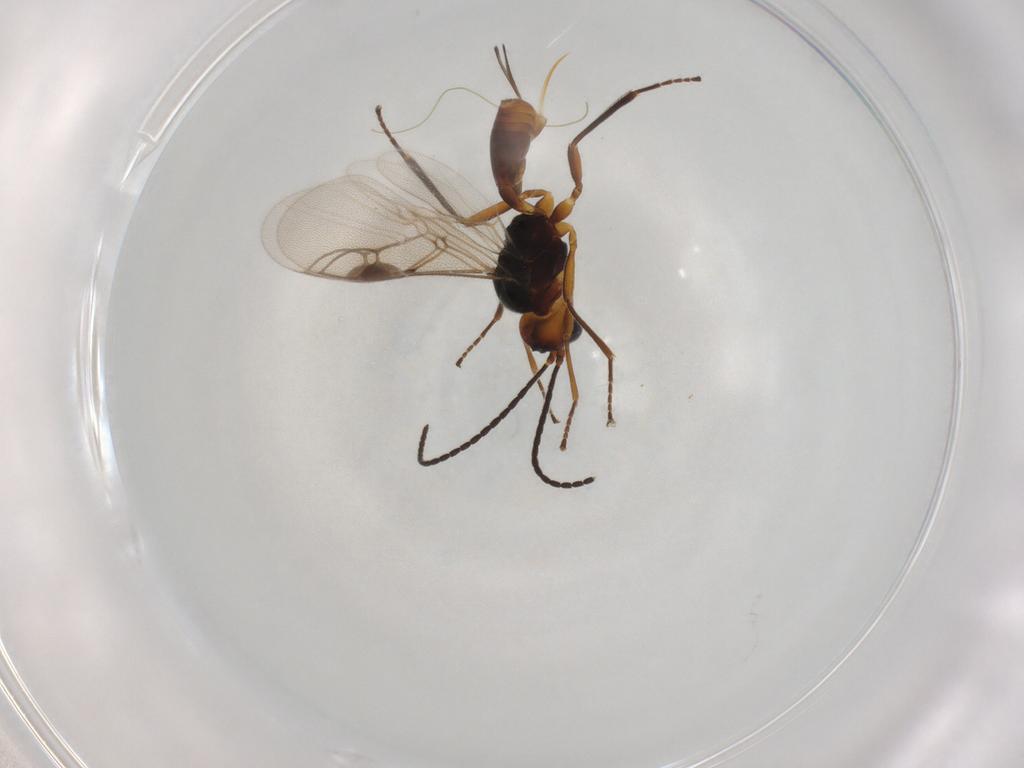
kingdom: Animalia
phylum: Arthropoda
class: Insecta
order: Hymenoptera
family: Braconidae
